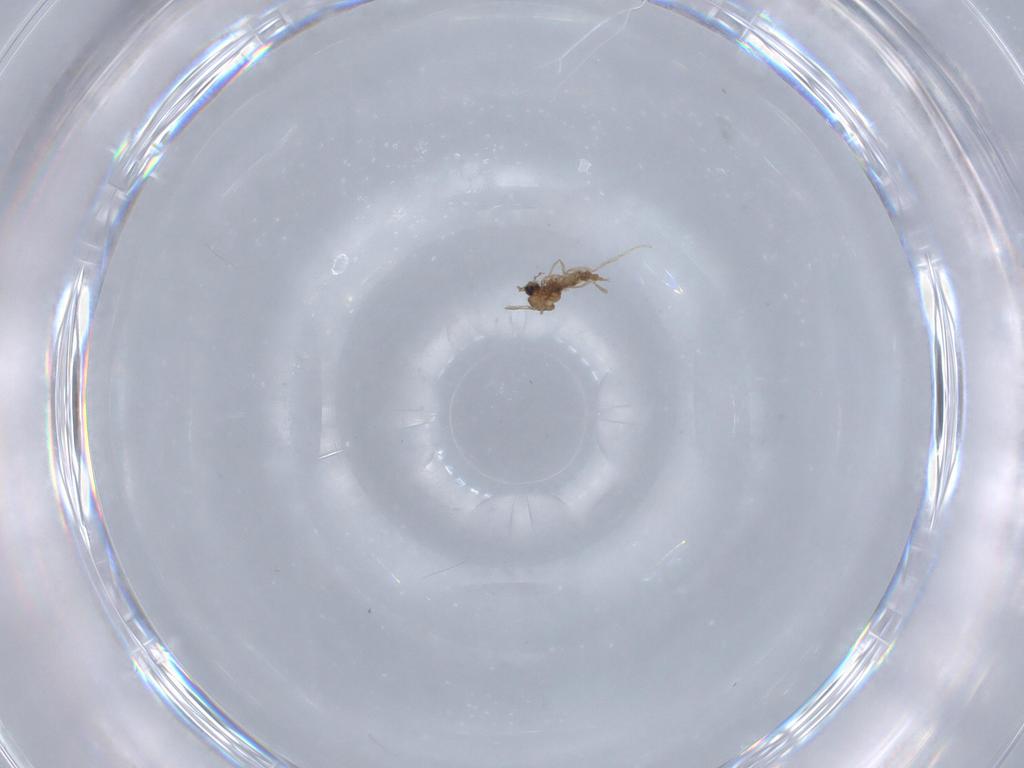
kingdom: Animalia
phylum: Arthropoda
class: Insecta
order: Diptera
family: Cecidomyiidae
